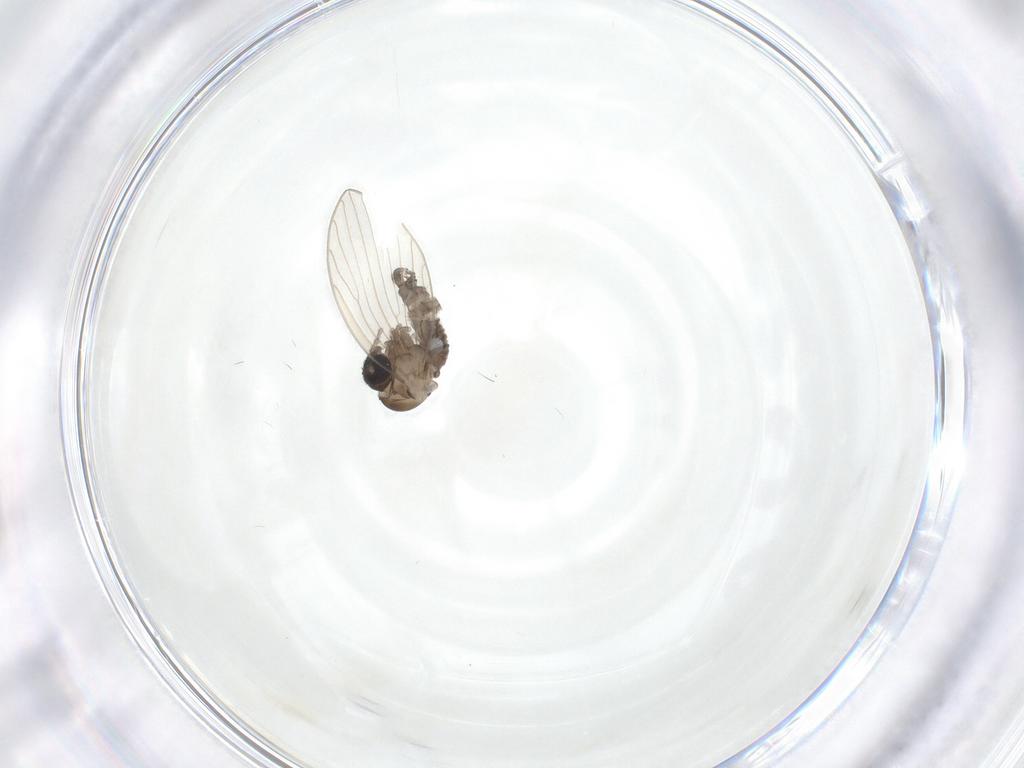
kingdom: Animalia
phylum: Arthropoda
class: Insecta
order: Diptera
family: Psychodidae
